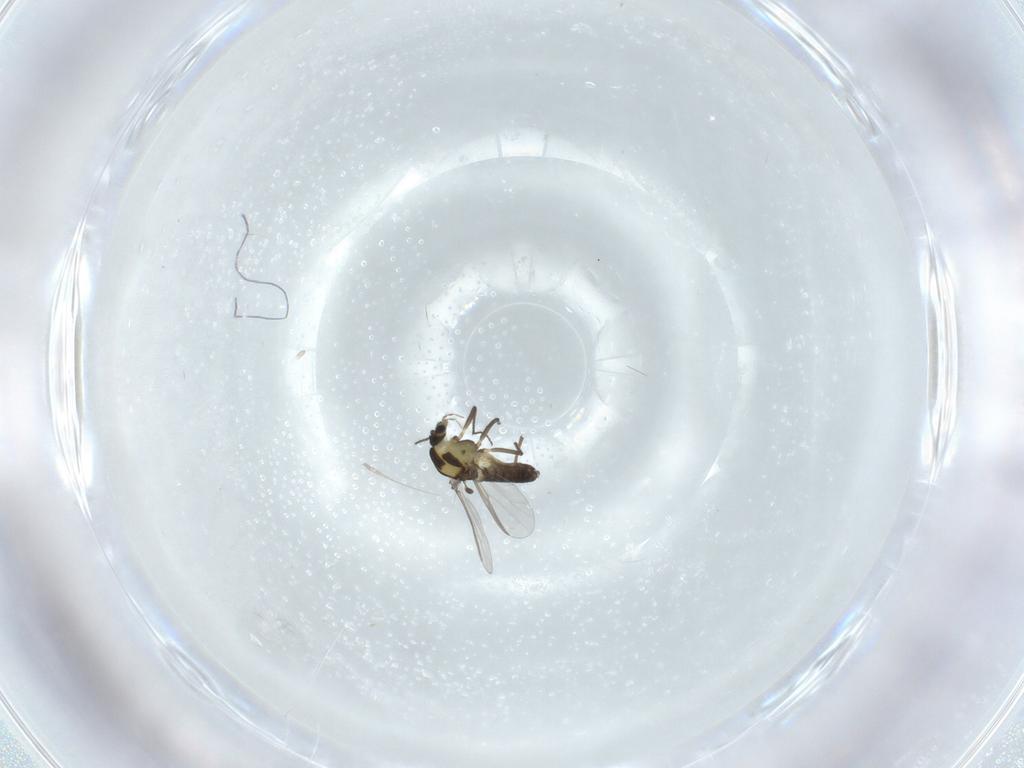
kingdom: Animalia
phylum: Arthropoda
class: Insecta
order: Diptera
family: Chironomidae
